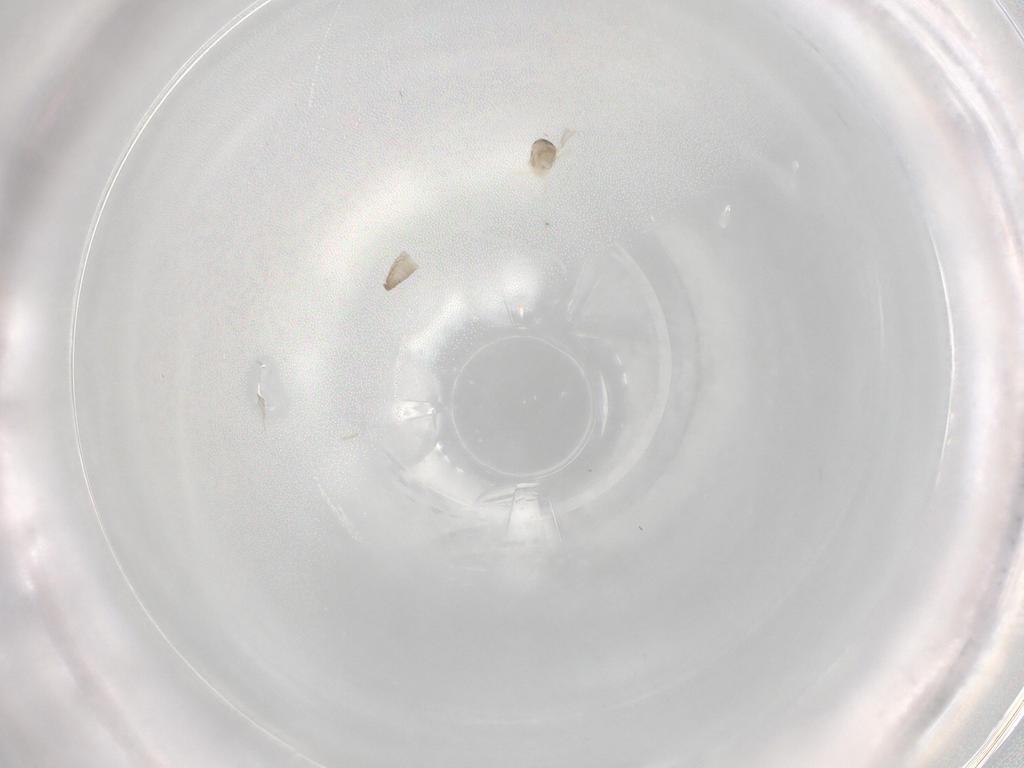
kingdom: Animalia
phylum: Arthropoda
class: Insecta
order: Diptera
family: Cecidomyiidae
